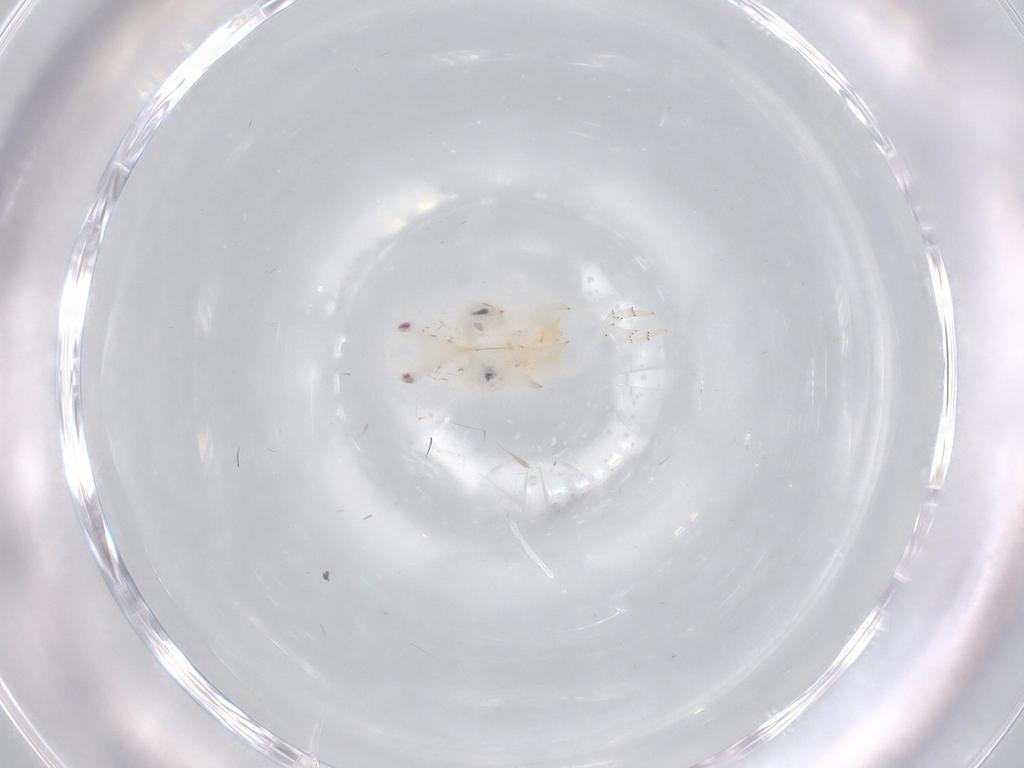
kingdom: Animalia
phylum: Arthropoda
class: Insecta
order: Hemiptera
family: Flatidae
